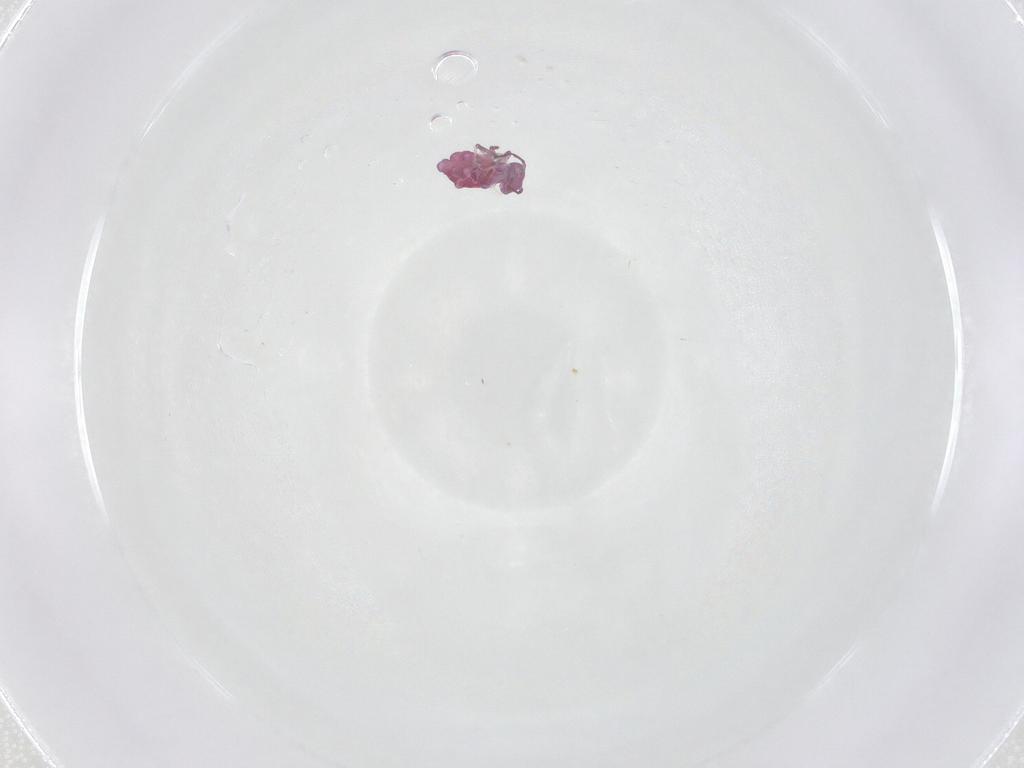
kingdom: Animalia
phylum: Arthropoda
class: Collembola
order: Symphypleona
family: Sminthuridae
